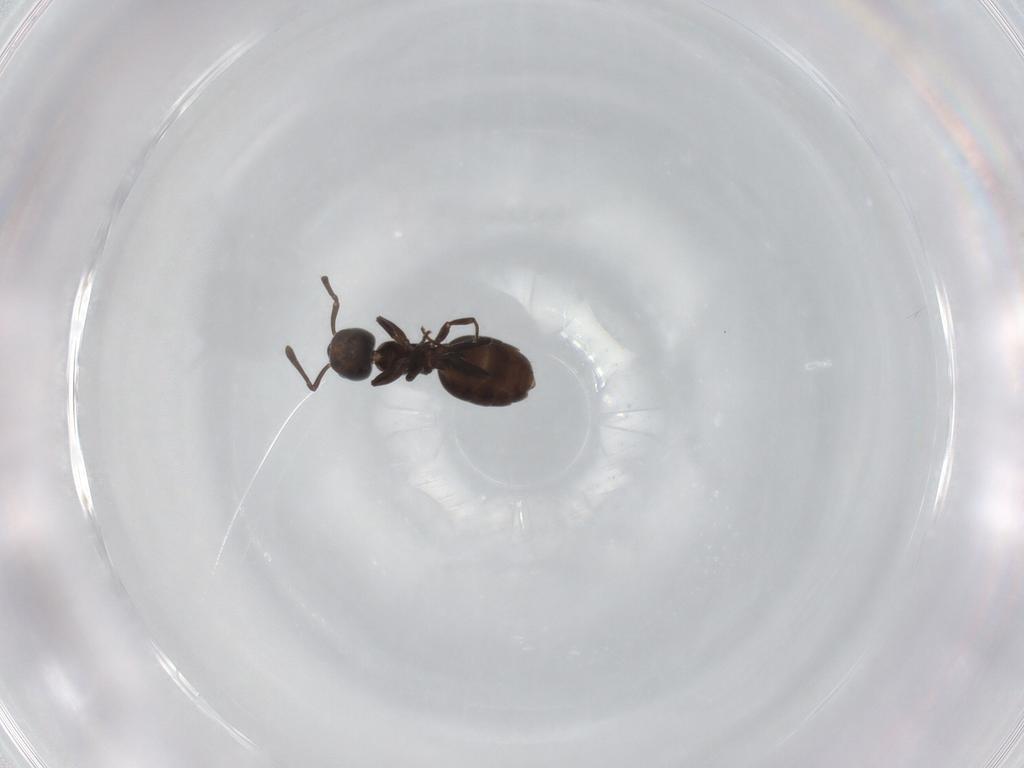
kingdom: Animalia
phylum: Arthropoda
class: Insecta
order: Hymenoptera
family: Formicidae
